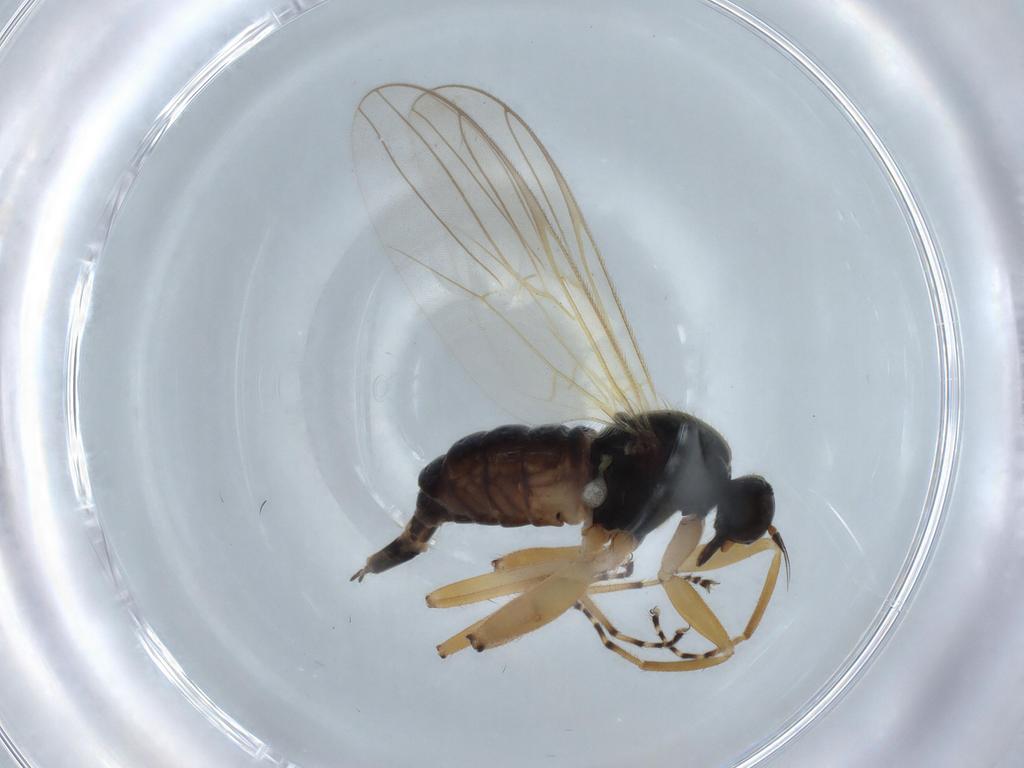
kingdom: Animalia
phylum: Arthropoda
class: Insecta
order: Diptera
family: Hybotidae
